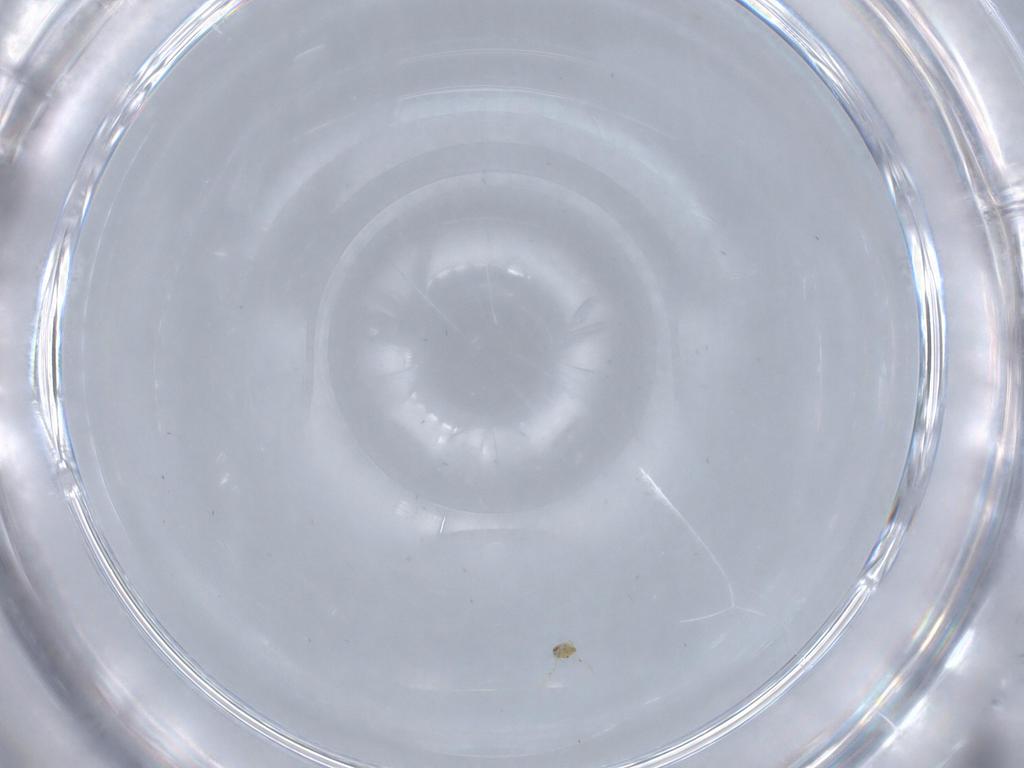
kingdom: Animalia
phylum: Arthropoda
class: Insecta
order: Hymenoptera
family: Trichogrammatidae
